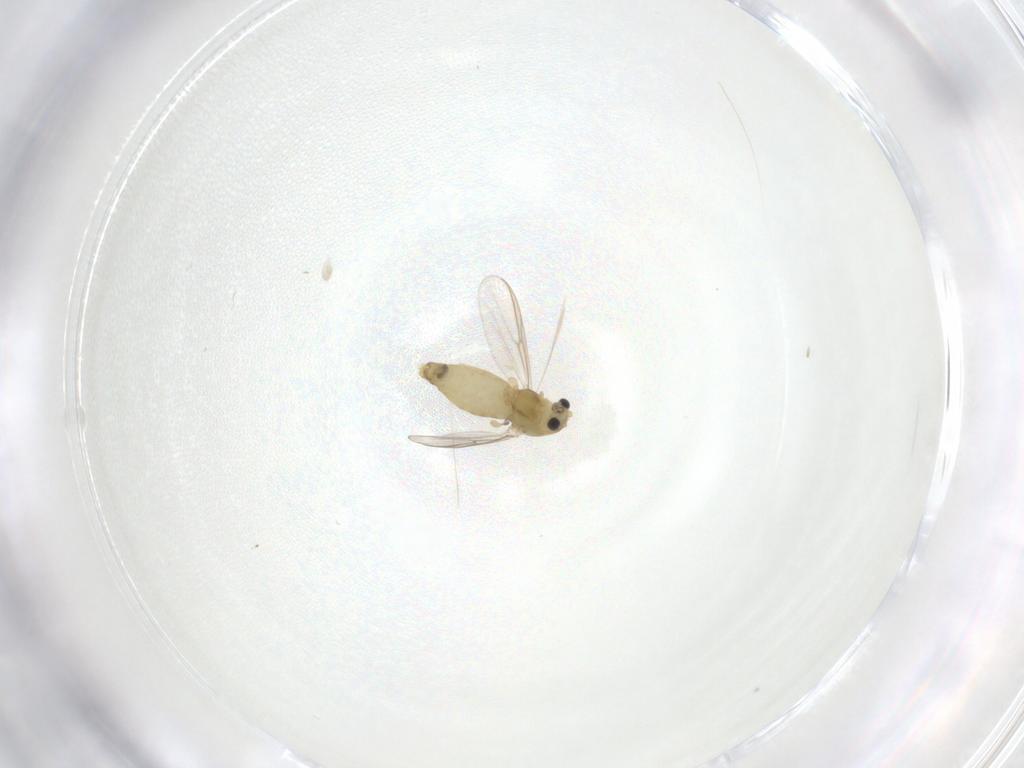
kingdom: Animalia
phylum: Arthropoda
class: Insecta
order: Diptera
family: Chironomidae
